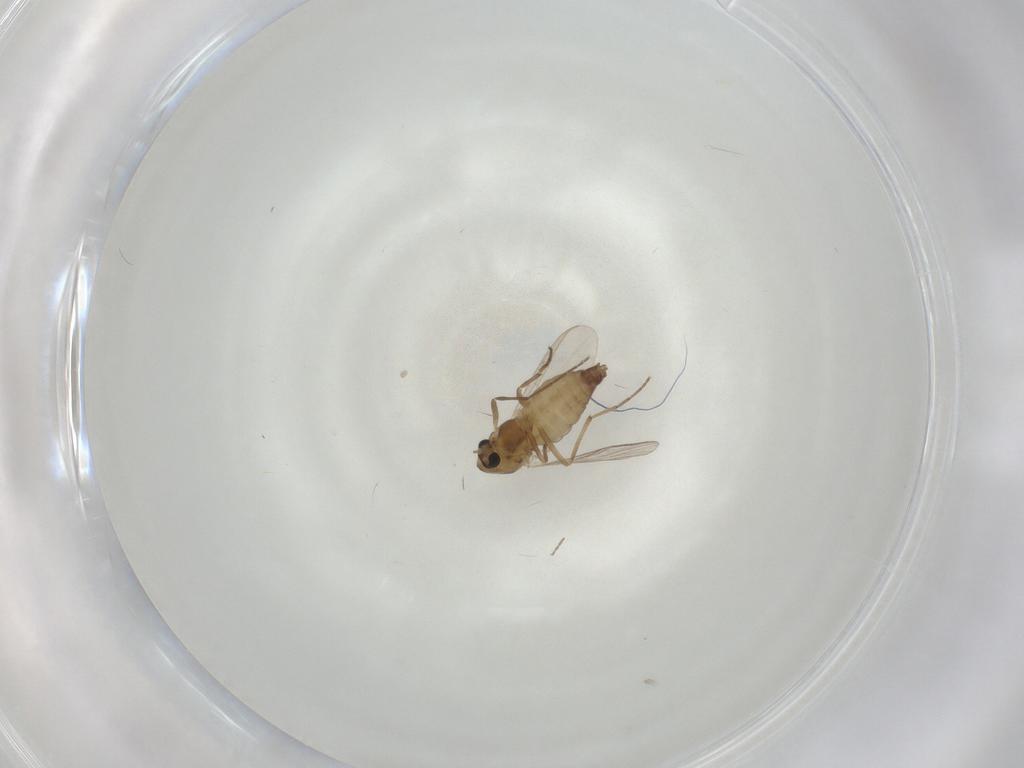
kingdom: Animalia
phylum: Arthropoda
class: Insecta
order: Diptera
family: Chironomidae
